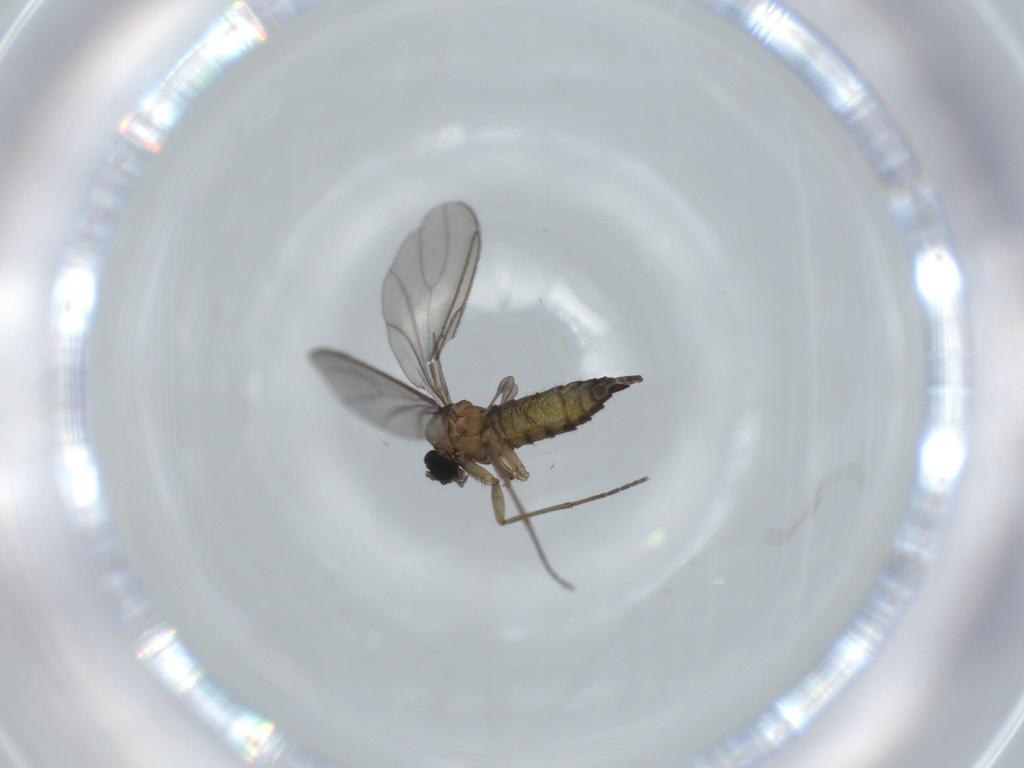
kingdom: Animalia
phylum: Arthropoda
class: Insecta
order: Diptera
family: Sciaridae
